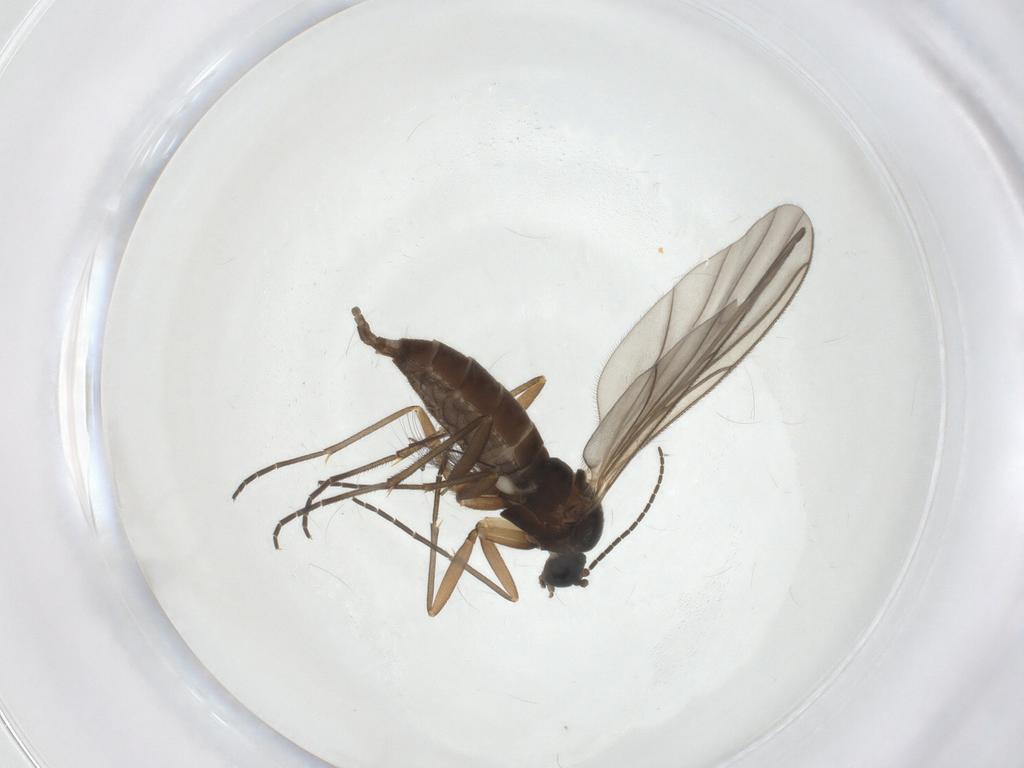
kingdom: Animalia
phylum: Arthropoda
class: Insecta
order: Diptera
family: Sciaridae
